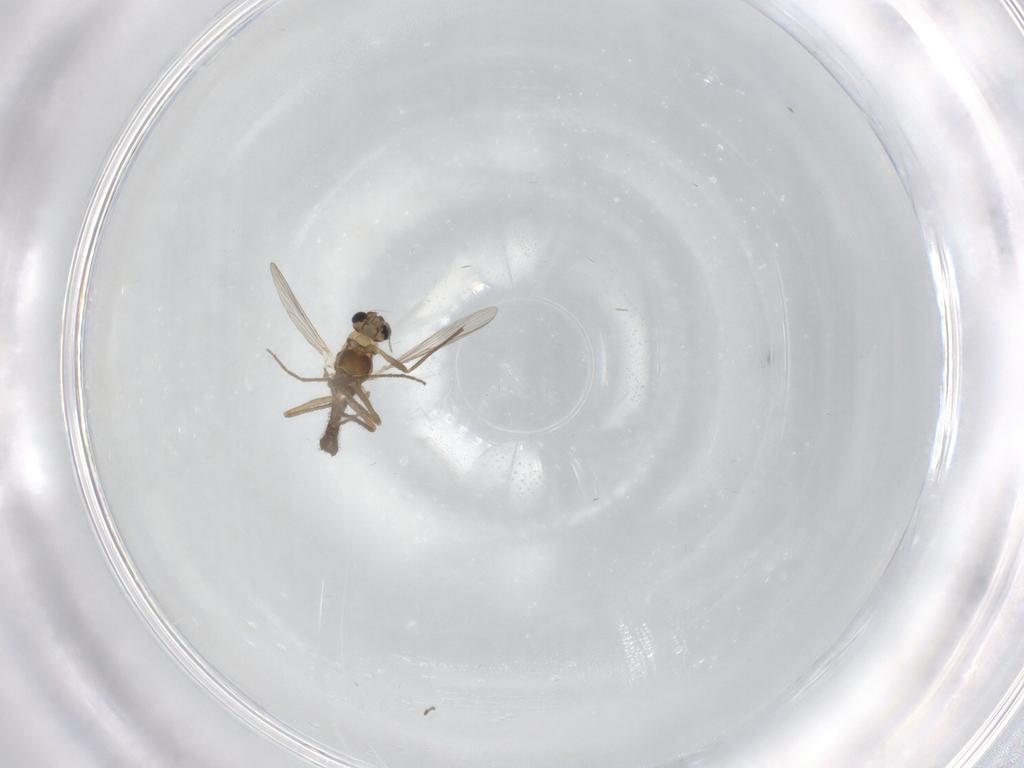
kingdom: Animalia
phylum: Arthropoda
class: Insecta
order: Diptera
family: Chironomidae
